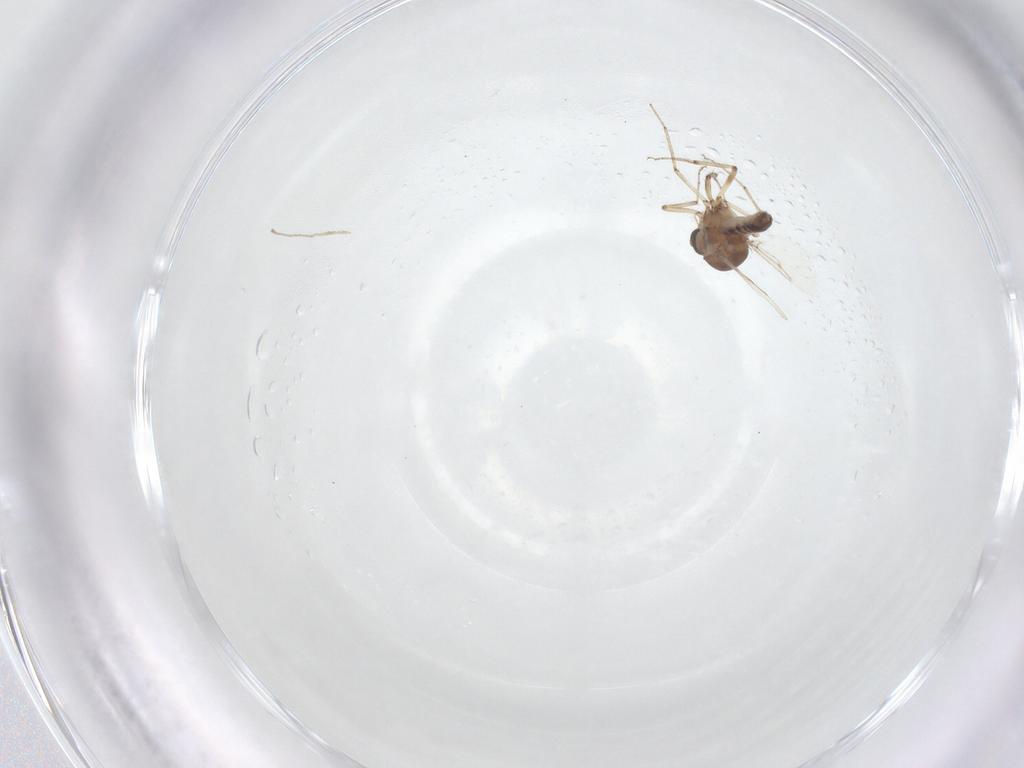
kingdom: Animalia
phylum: Arthropoda
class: Insecta
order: Diptera
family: Ceratopogonidae
